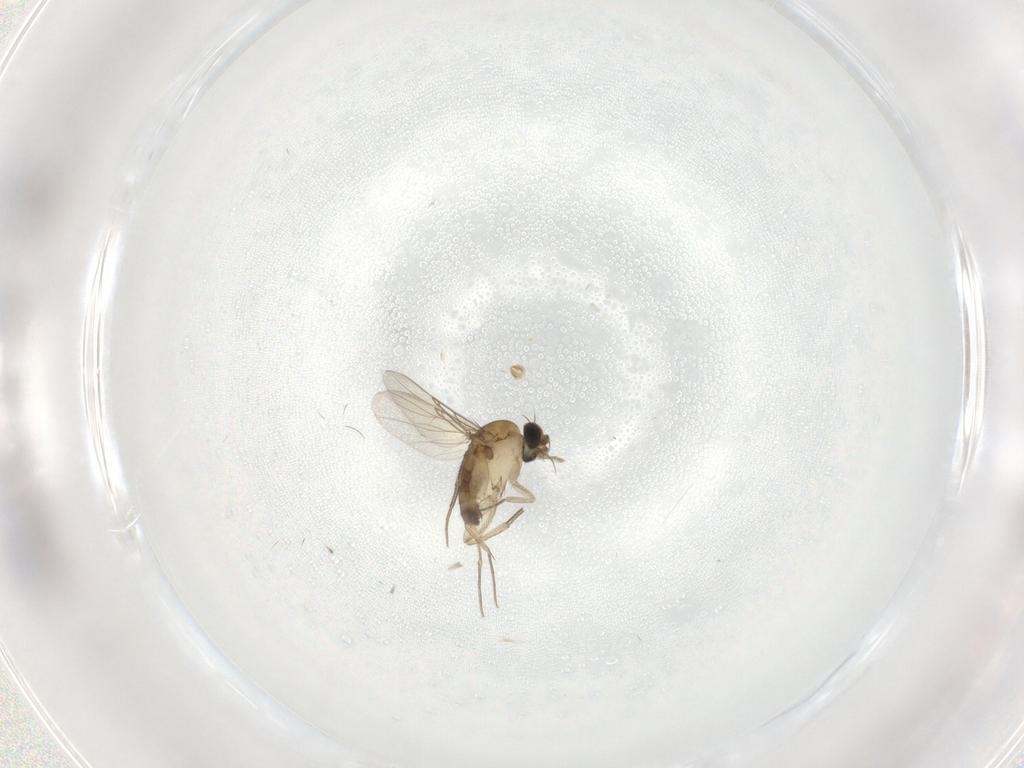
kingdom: Animalia
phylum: Arthropoda
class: Insecta
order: Diptera
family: Phoridae
